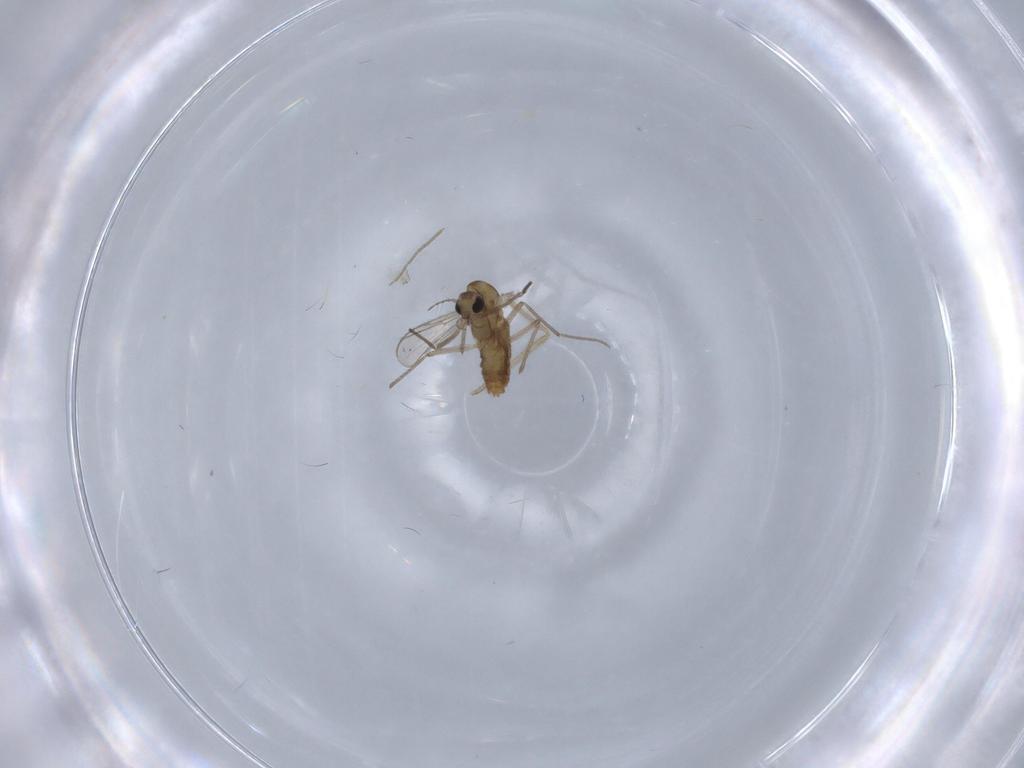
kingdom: Animalia
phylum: Arthropoda
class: Insecta
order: Diptera
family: Chironomidae
